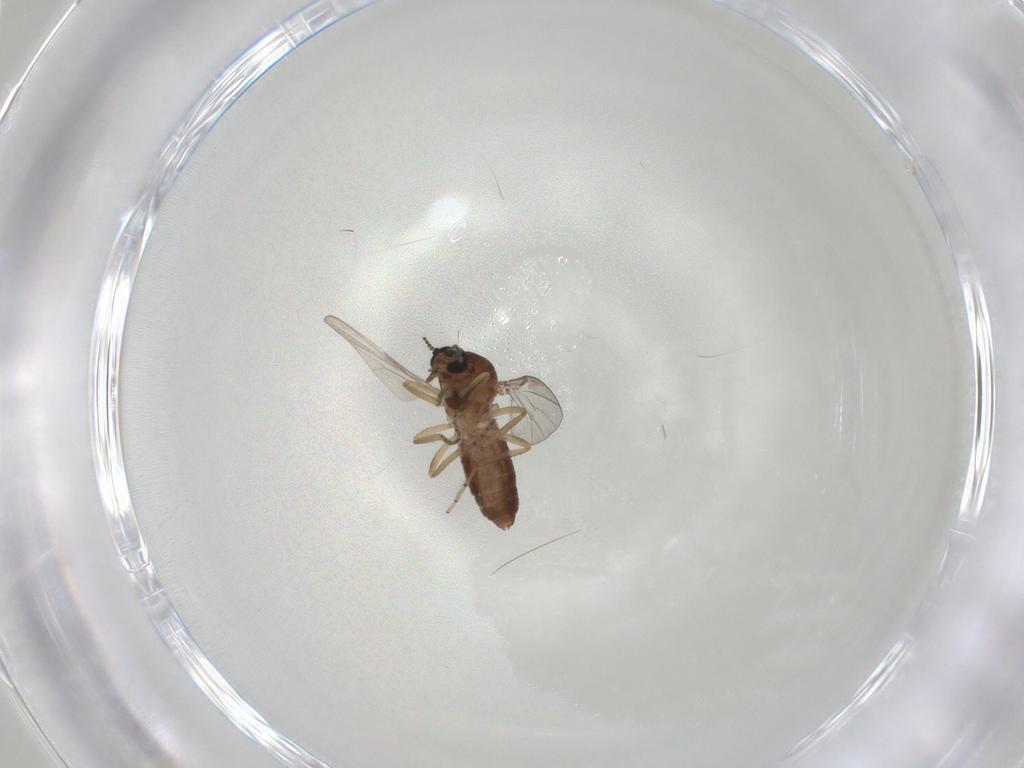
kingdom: Animalia
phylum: Arthropoda
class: Insecta
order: Diptera
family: Ceratopogonidae
